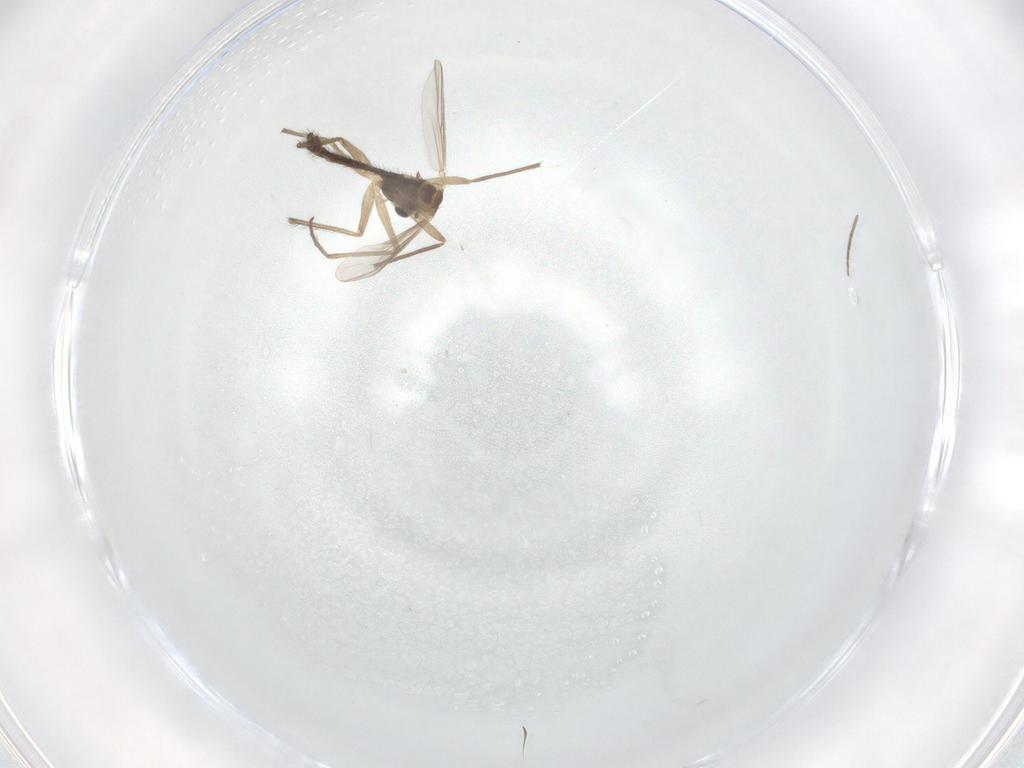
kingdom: Animalia
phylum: Arthropoda
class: Insecta
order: Diptera
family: Chironomidae
